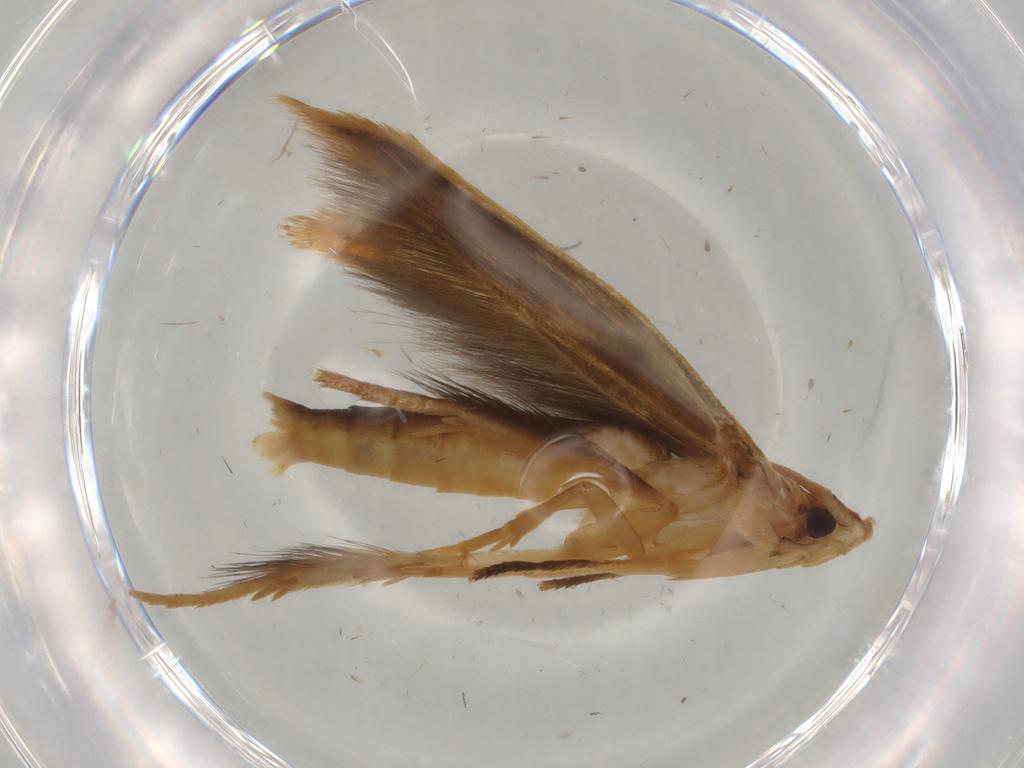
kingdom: Animalia
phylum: Arthropoda
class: Insecta
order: Lepidoptera
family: Tineidae
